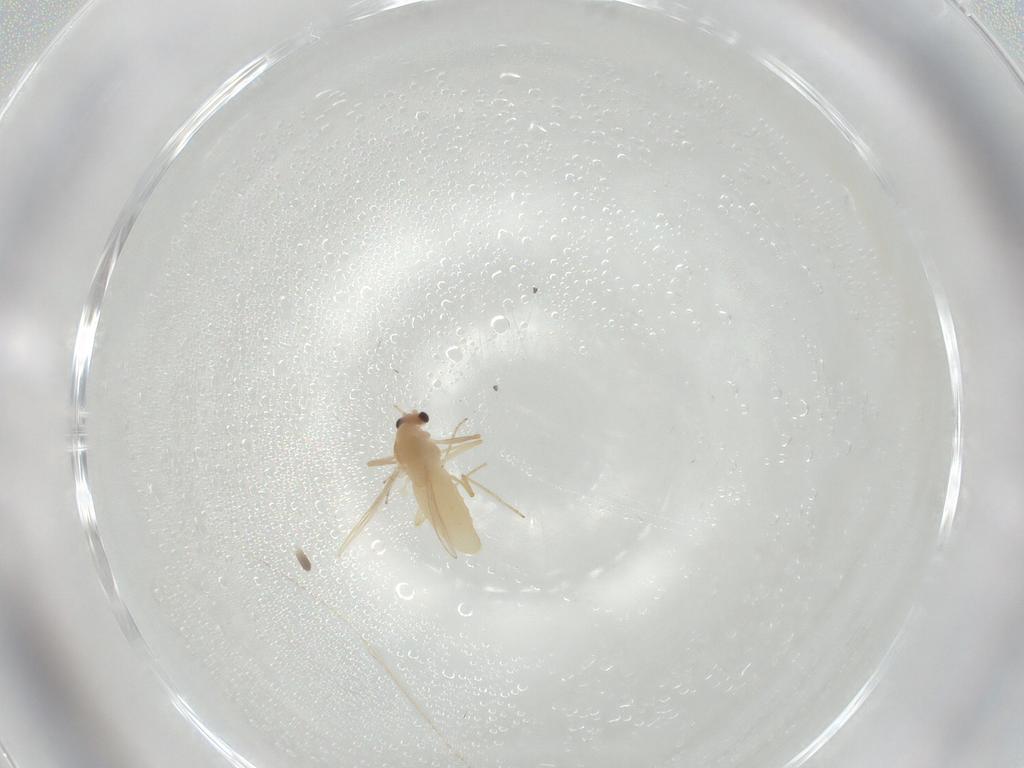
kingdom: Animalia
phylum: Arthropoda
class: Insecta
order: Diptera
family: Chironomidae
